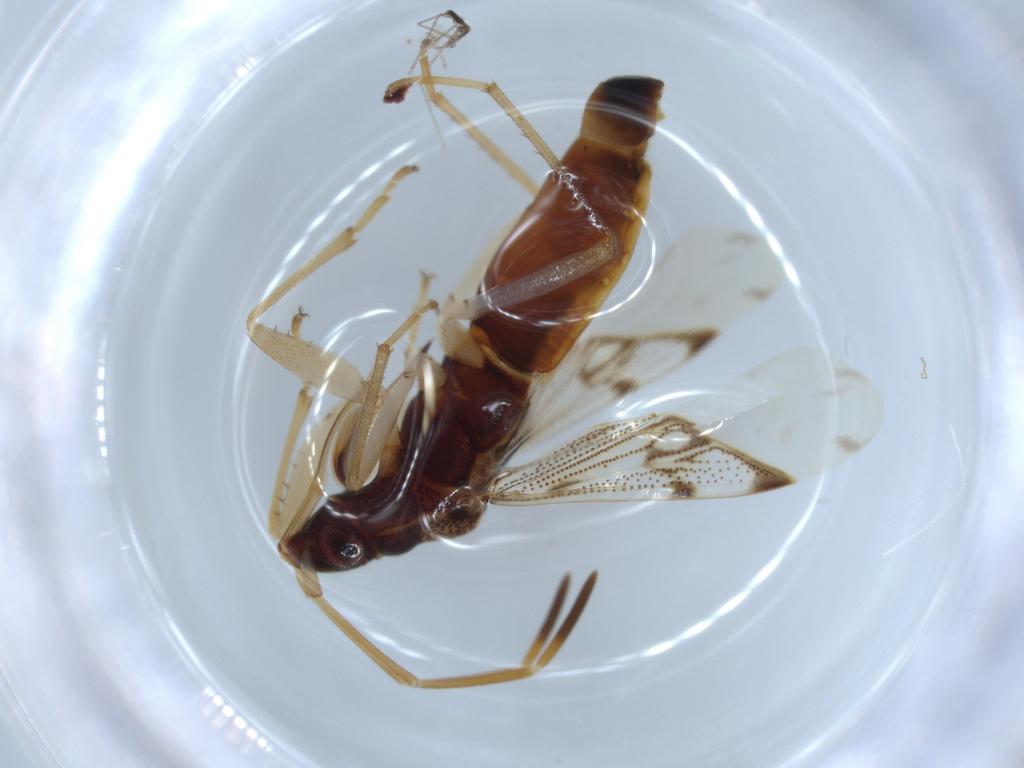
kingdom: Animalia
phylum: Arthropoda
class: Insecta
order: Hemiptera
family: Rhyparochromidae
